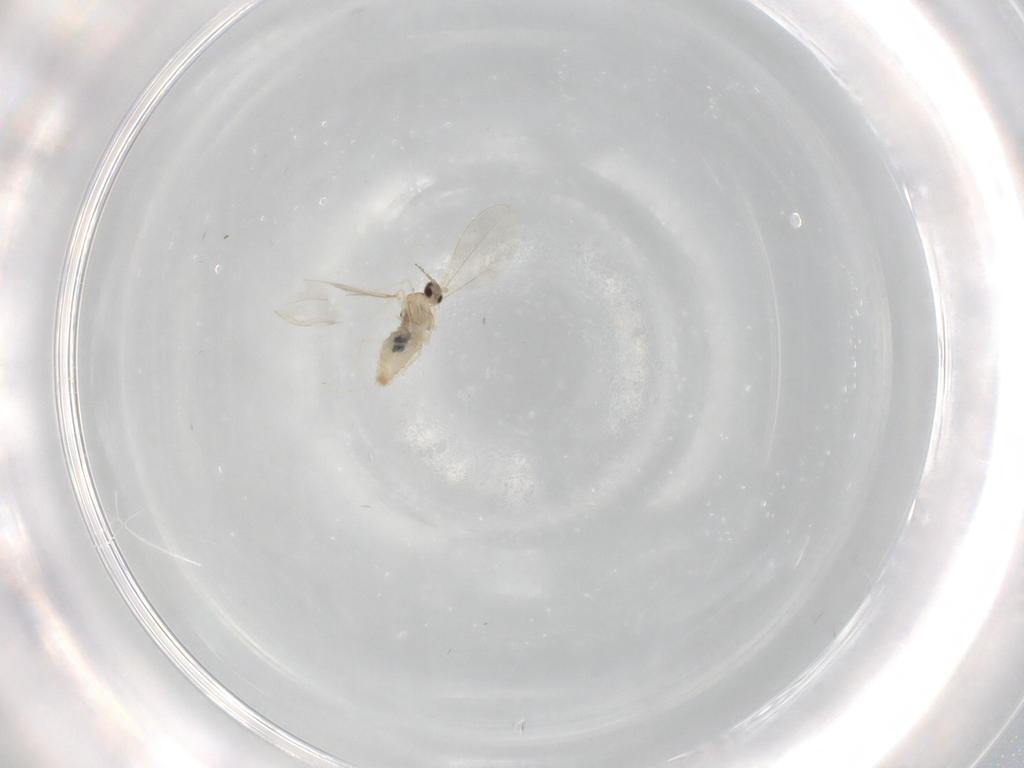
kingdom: Animalia
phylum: Arthropoda
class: Insecta
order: Diptera
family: Cecidomyiidae
